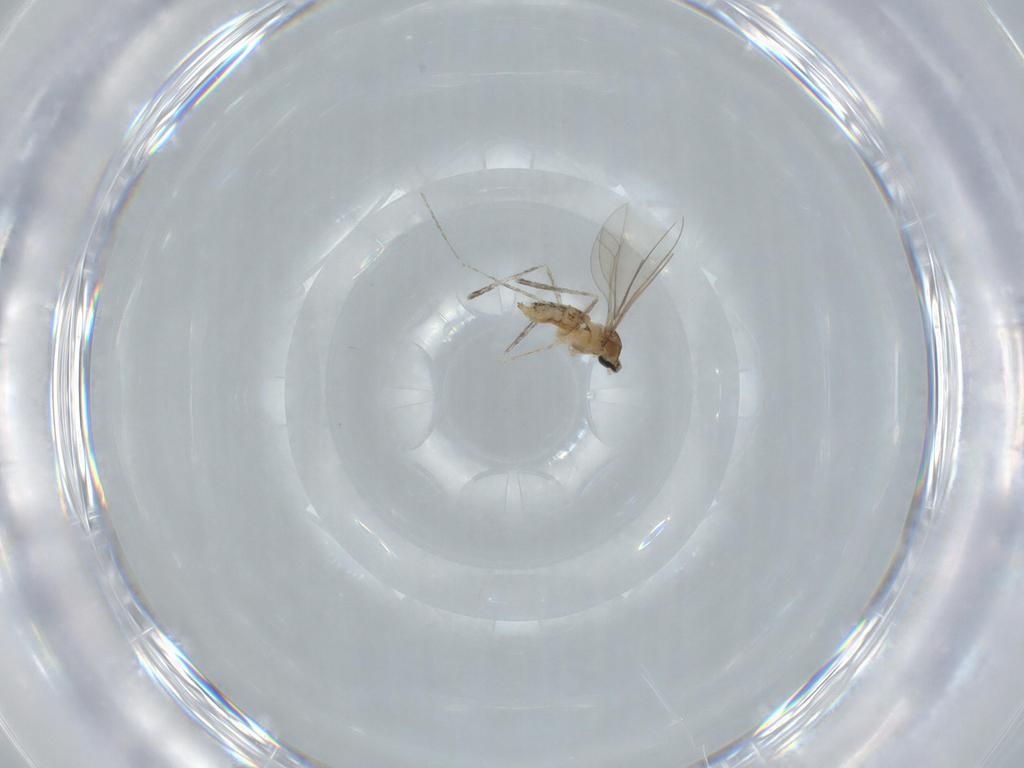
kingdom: Animalia
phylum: Arthropoda
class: Insecta
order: Diptera
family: Cecidomyiidae
